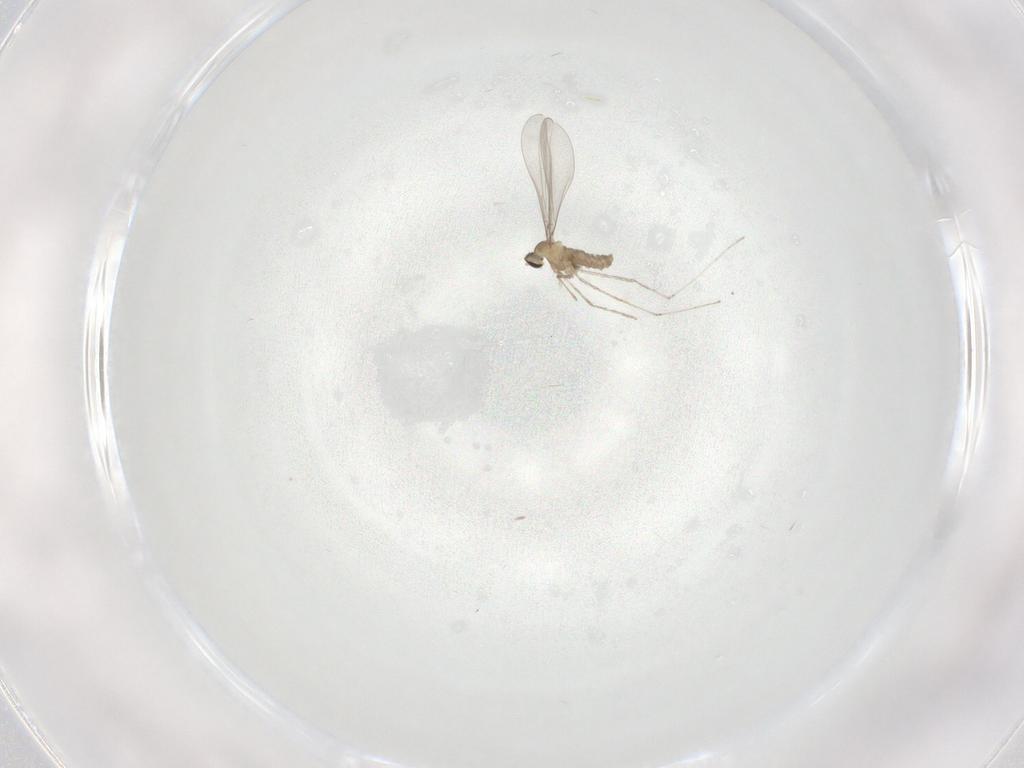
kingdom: Animalia
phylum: Arthropoda
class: Insecta
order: Diptera
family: Cecidomyiidae
